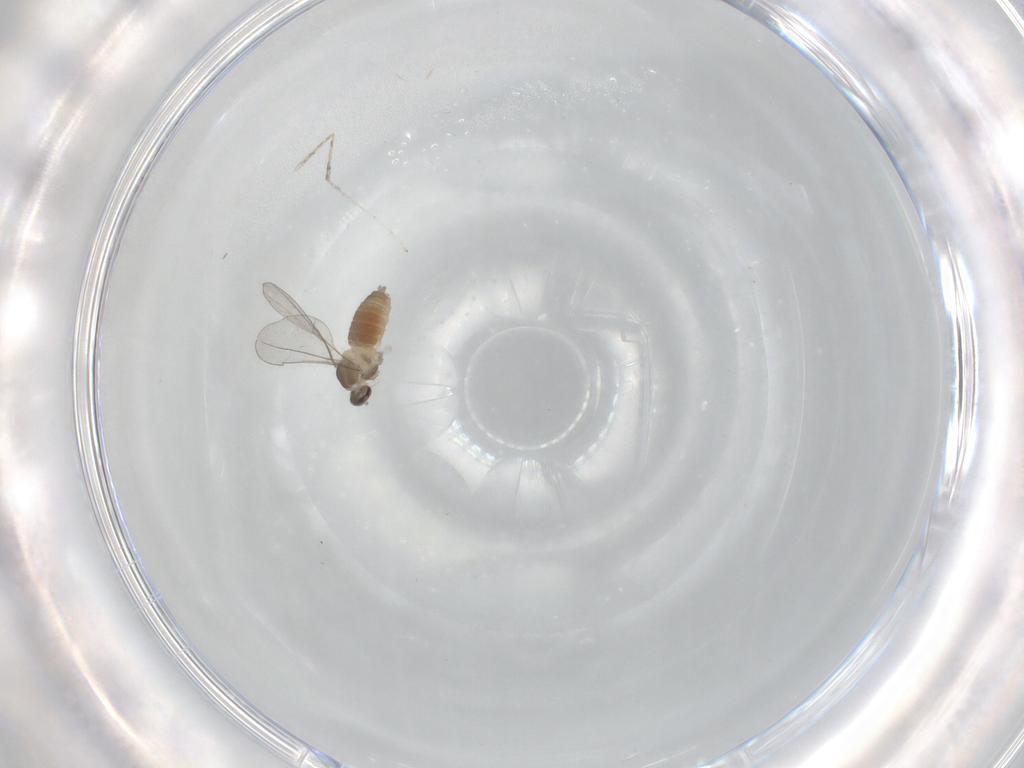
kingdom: Animalia
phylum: Arthropoda
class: Insecta
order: Diptera
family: Cecidomyiidae
